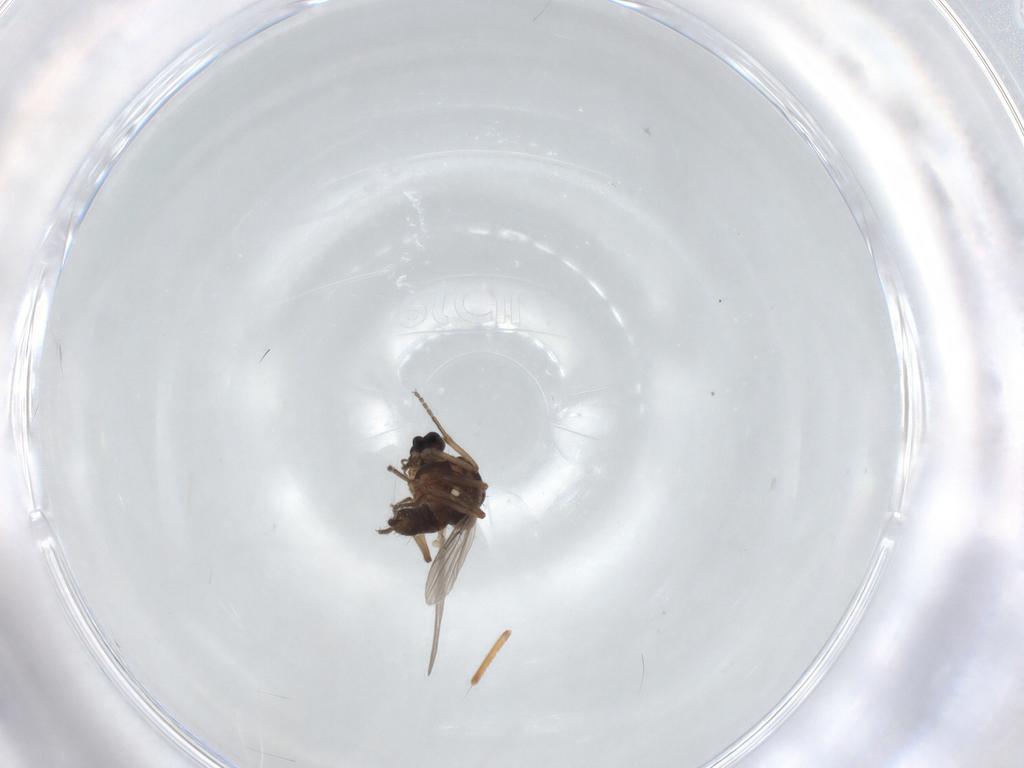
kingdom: Animalia
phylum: Arthropoda
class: Insecta
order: Diptera
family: Ceratopogonidae
